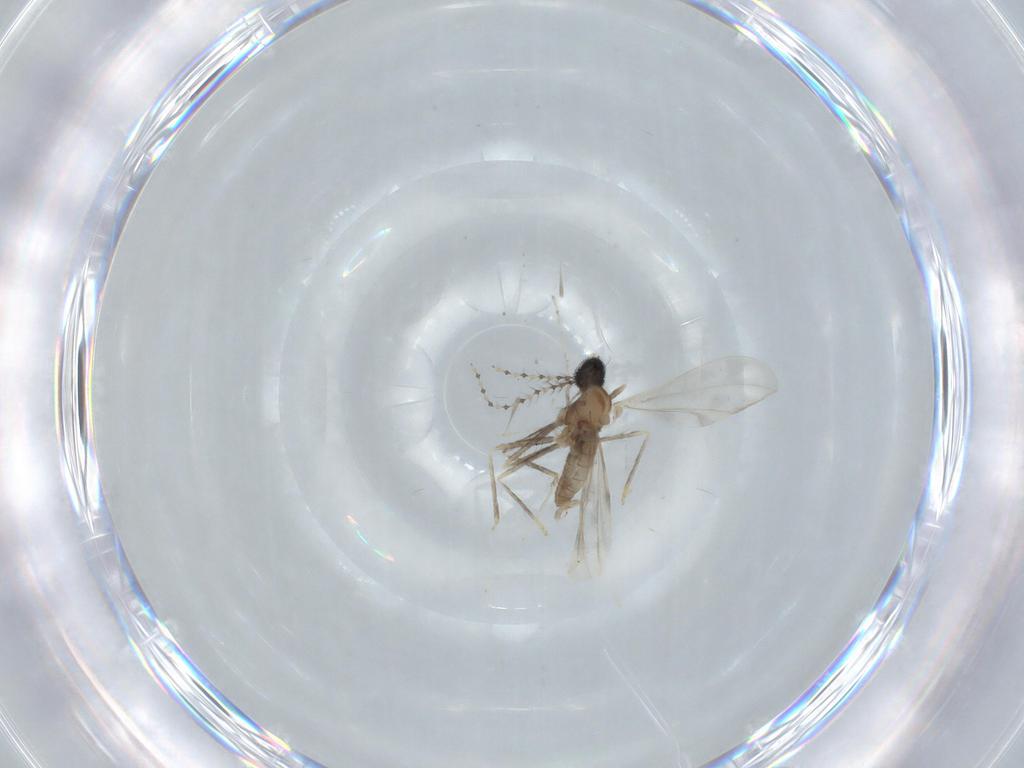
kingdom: Animalia
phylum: Arthropoda
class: Insecta
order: Diptera
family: Cecidomyiidae
